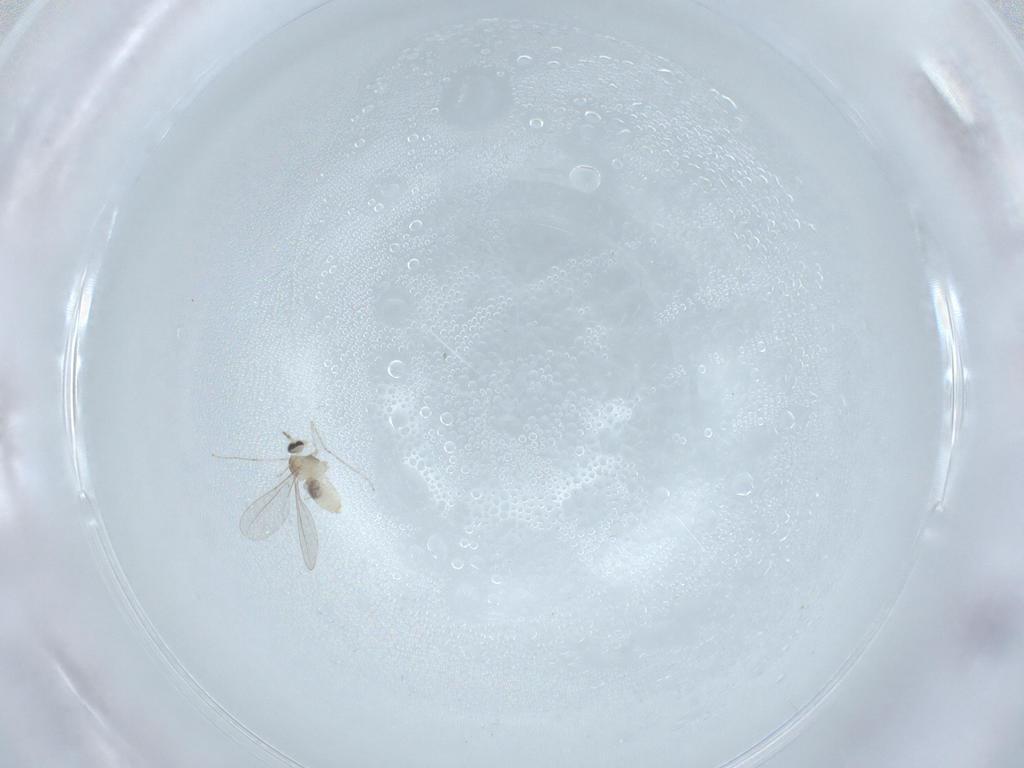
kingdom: Animalia
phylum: Arthropoda
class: Insecta
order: Diptera
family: Cecidomyiidae
